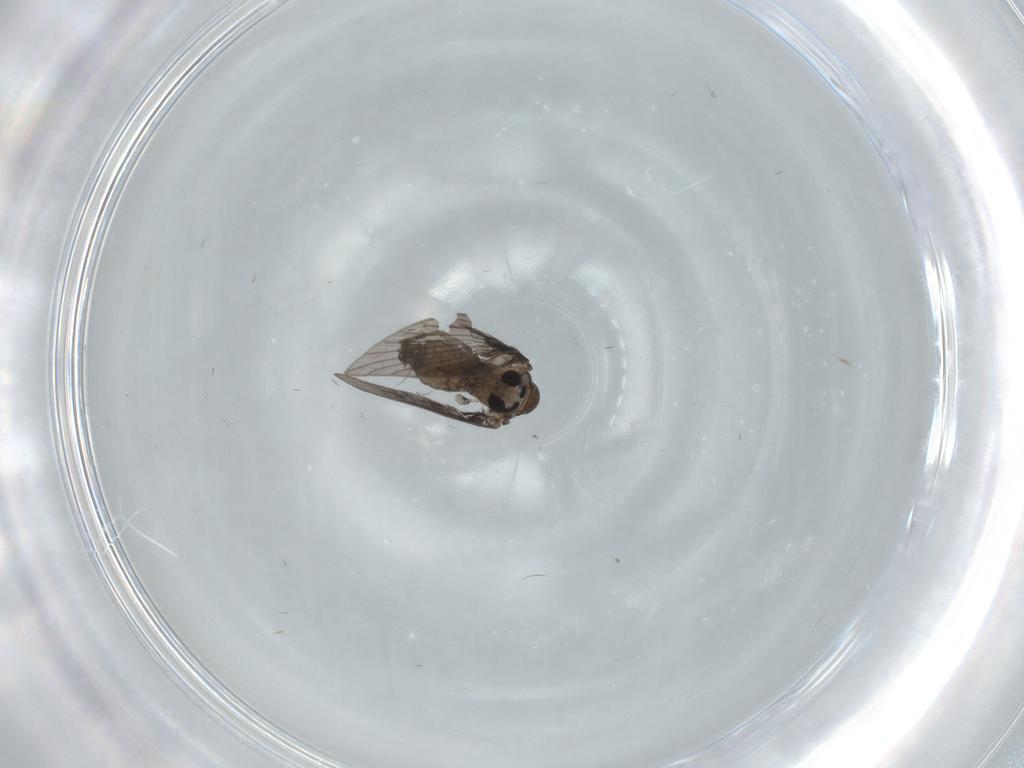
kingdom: Animalia
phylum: Arthropoda
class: Insecta
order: Diptera
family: Psychodidae
